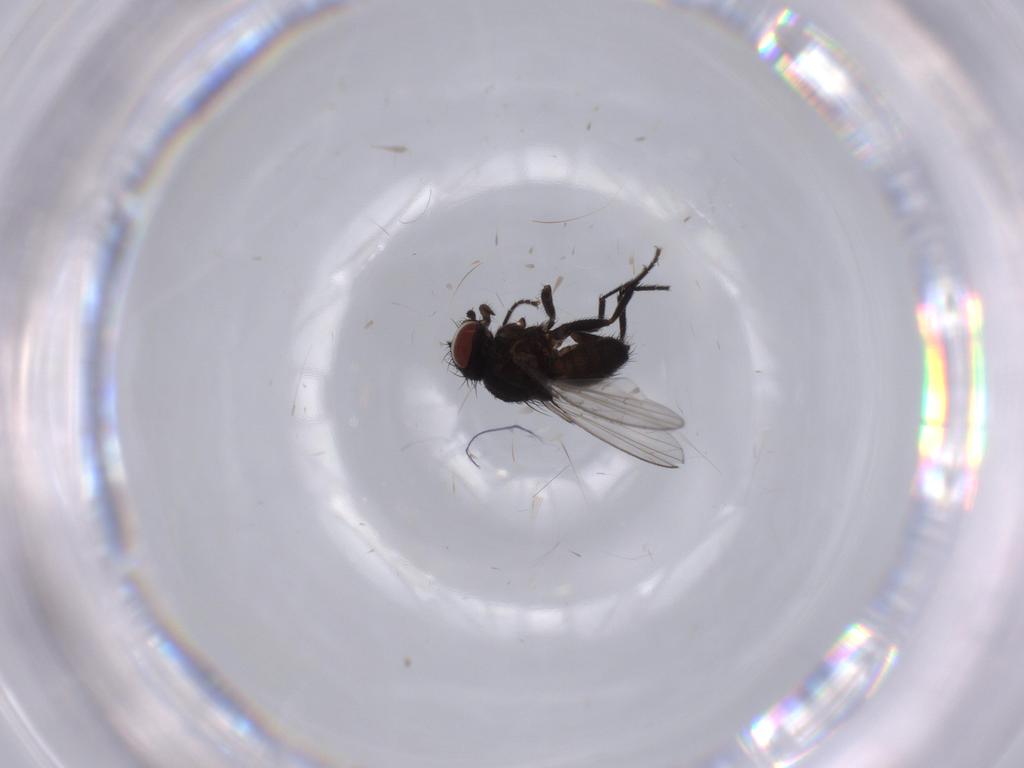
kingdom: Animalia
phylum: Arthropoda
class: Insecta
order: Diptera
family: Milichiidae
